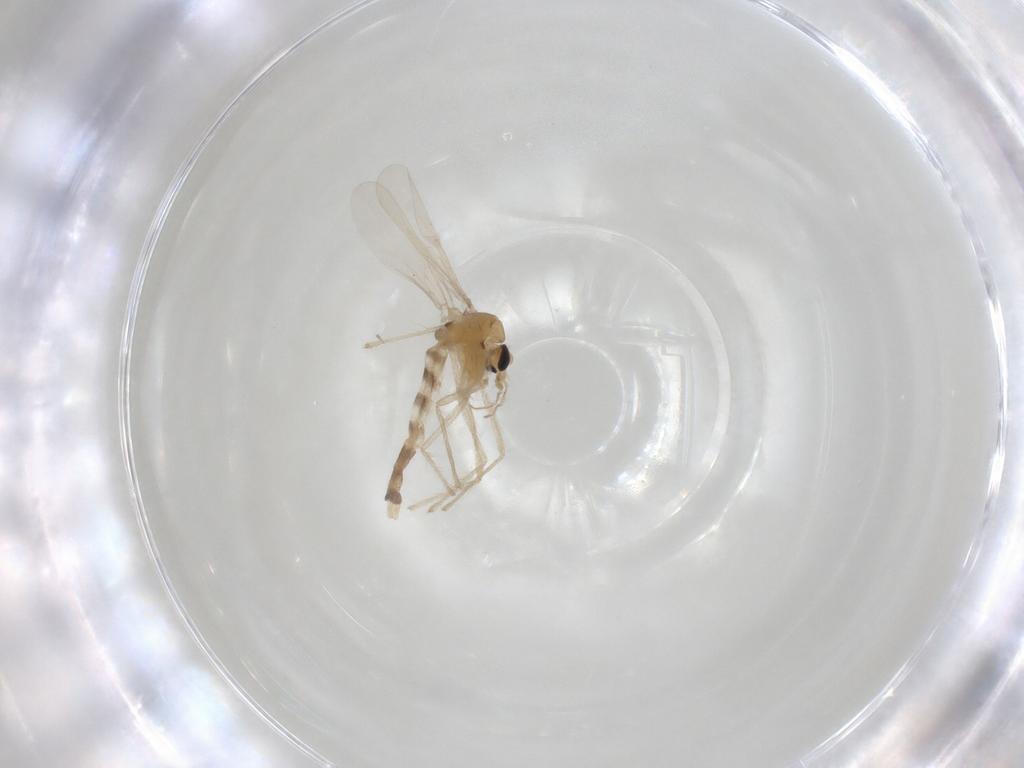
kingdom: Animalia
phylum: Arthropoda
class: Insecta
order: Diptera
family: Chironomidae
